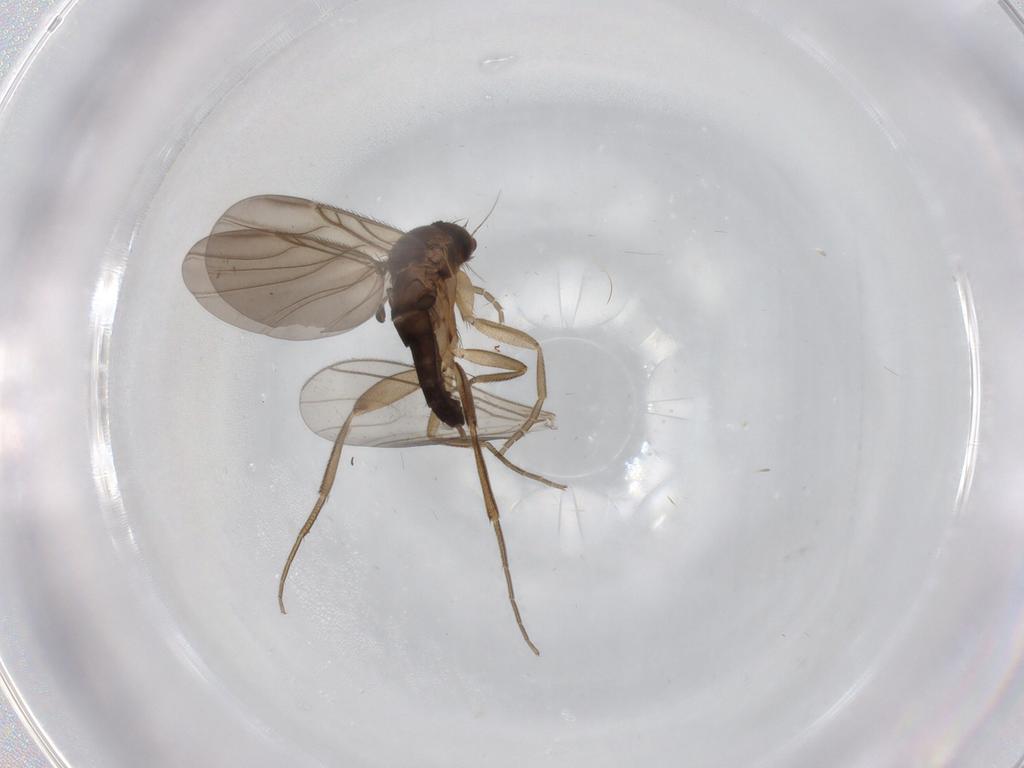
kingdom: Animalia
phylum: Arthropoda
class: Insecta
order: Diptera
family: Phoridae
